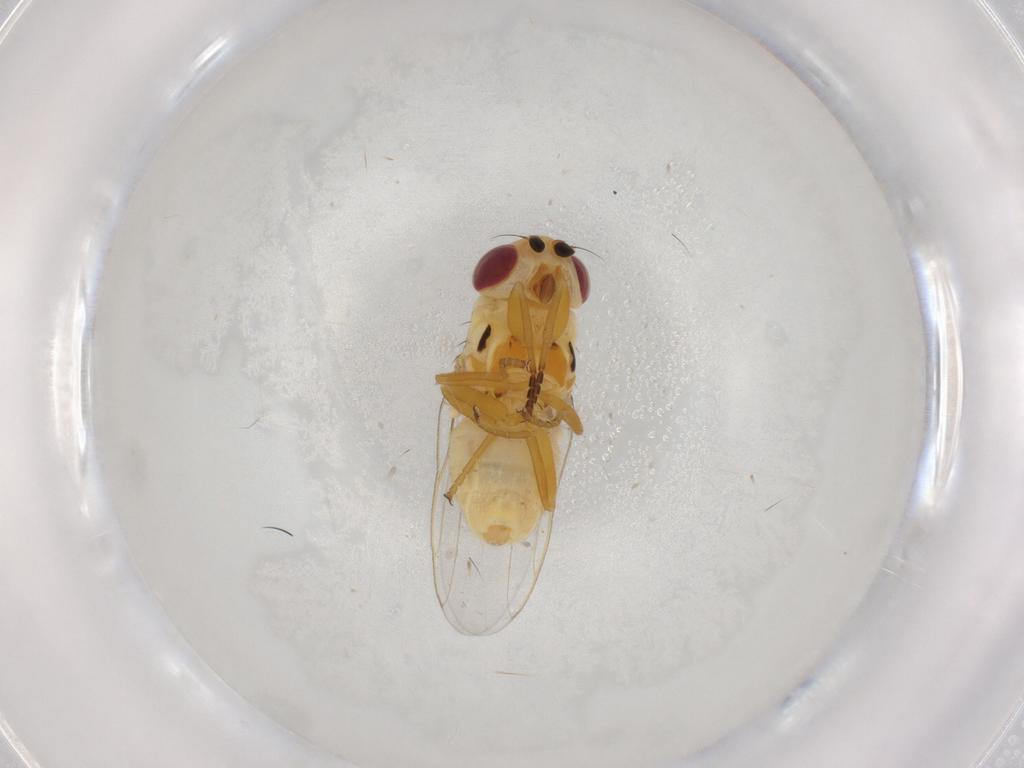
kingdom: Animalia
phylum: Arthropoda
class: Insecta
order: Diptera
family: Chloropidae
